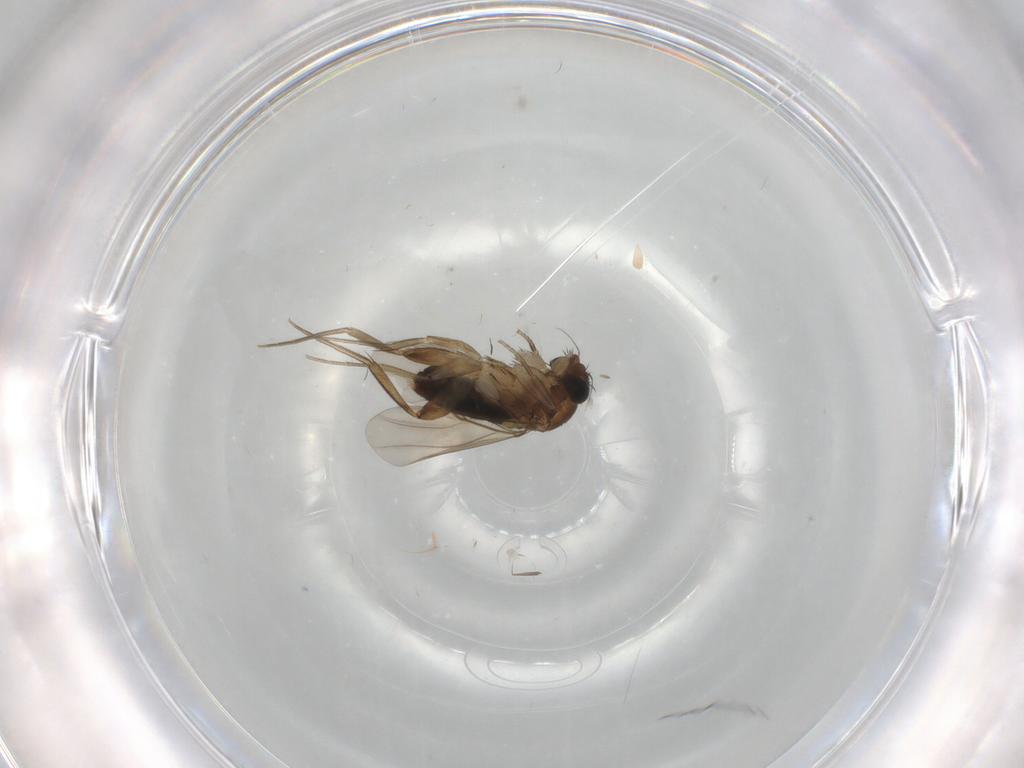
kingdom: Animalia
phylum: Arthropoda
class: Insecta
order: Diptera
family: Phoridae
